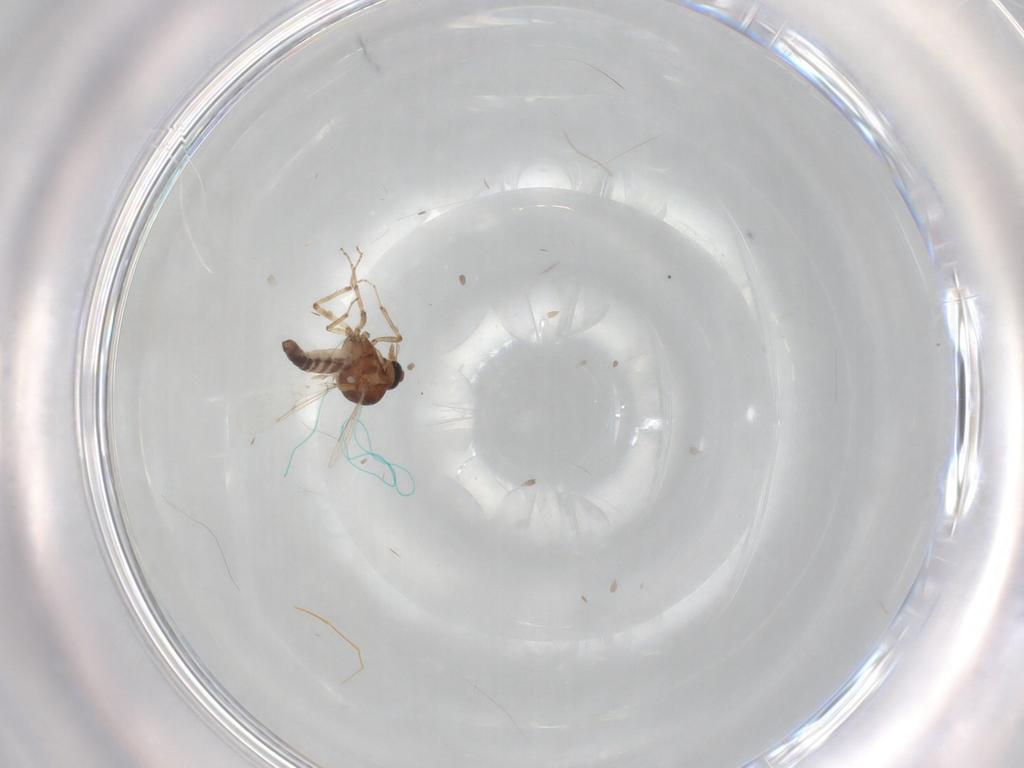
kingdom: Animalia
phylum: Arthropoda
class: Insecta
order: Diptera
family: Ceratopogonidae
